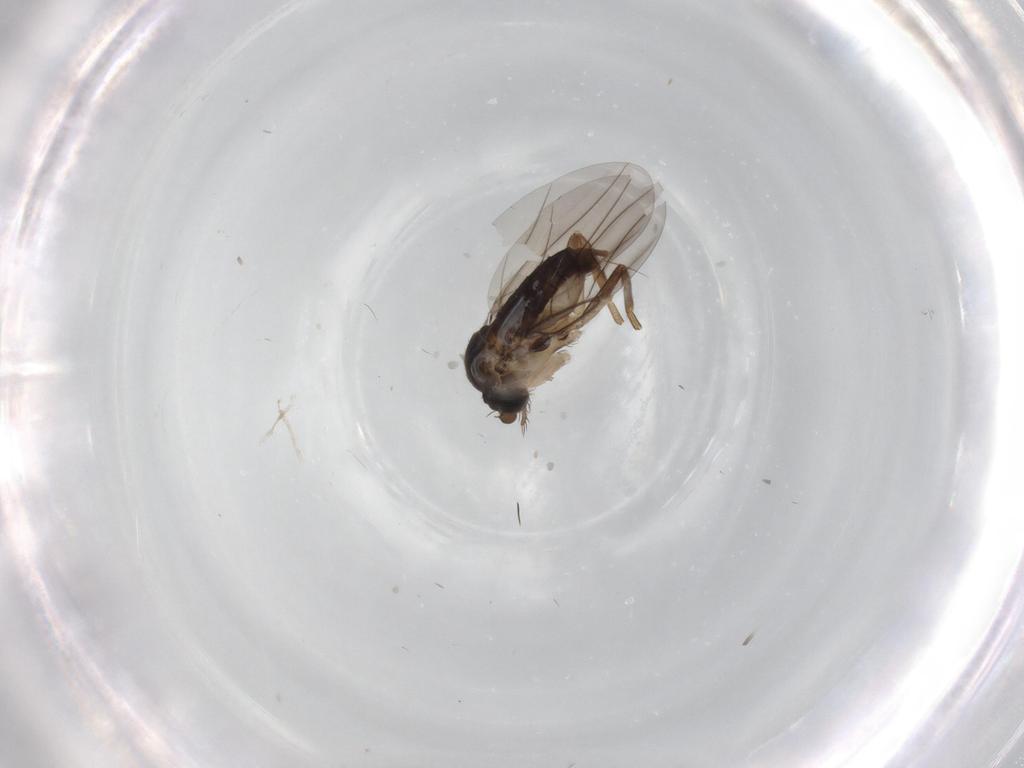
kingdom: Animalia
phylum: Arthropoda
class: Insecta
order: Diptera
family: Phoridae
